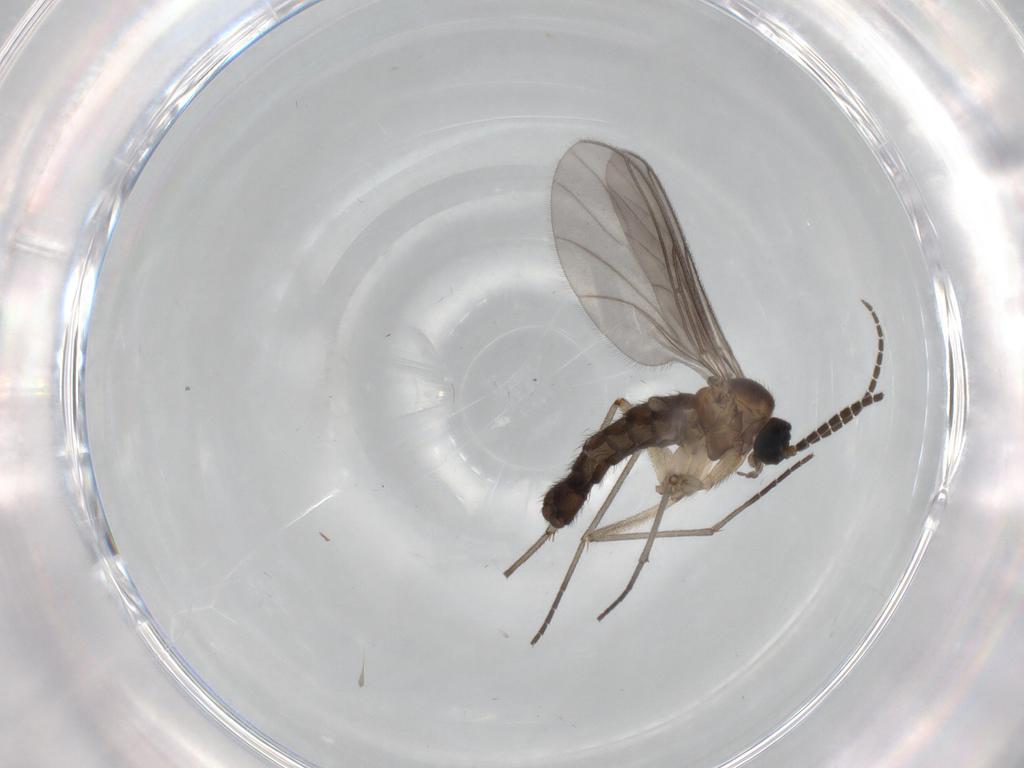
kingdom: Animalia
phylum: Arthropoda
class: Insecta
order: Diptera
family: Sciaridae
